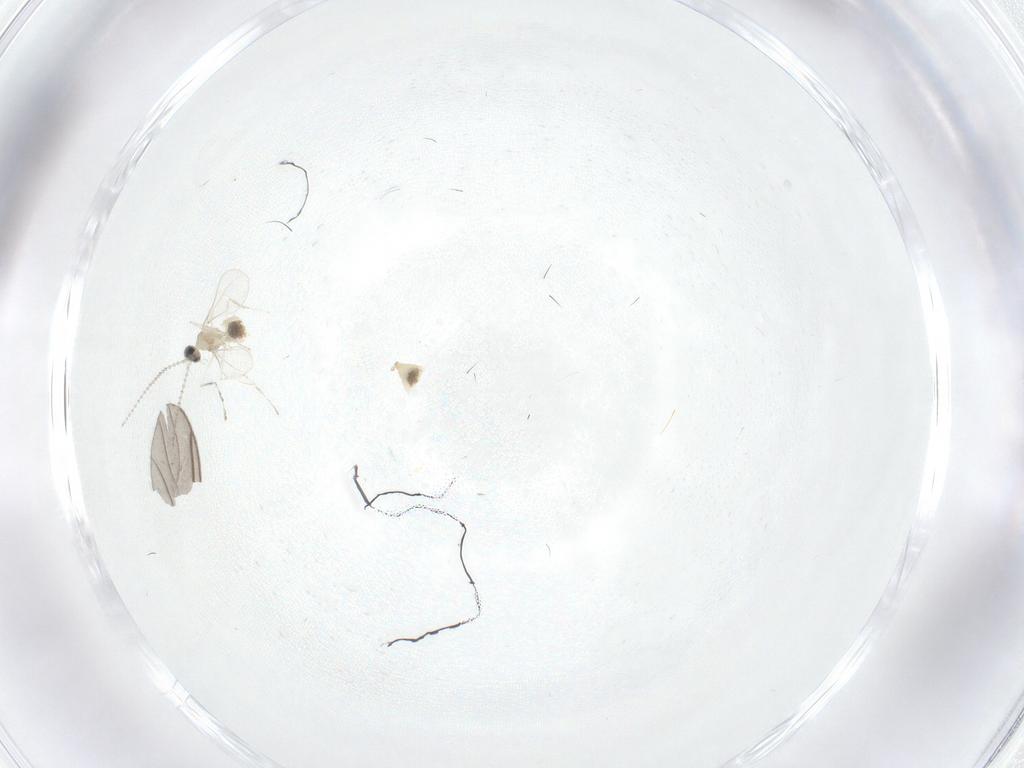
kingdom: Animalia
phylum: Arthropoda
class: Insecta
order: Diptera
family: Cecidomyiidae
